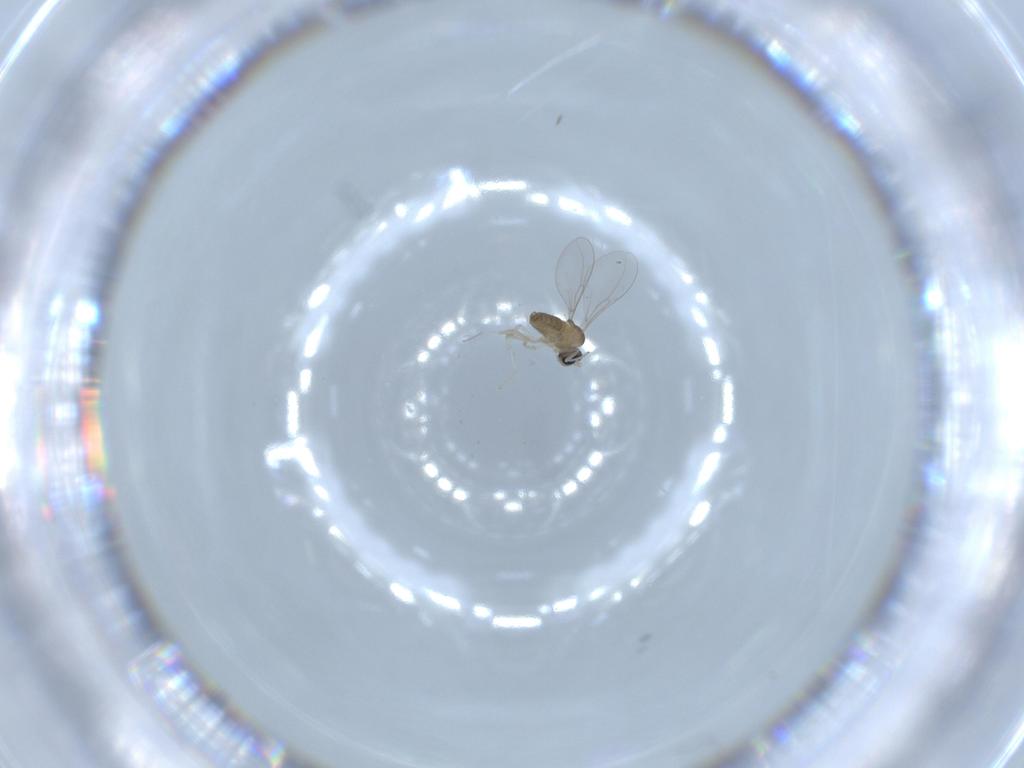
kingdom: Animalia
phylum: Arthropoda
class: Insecta
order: Diptera
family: Cecidomyiidae
